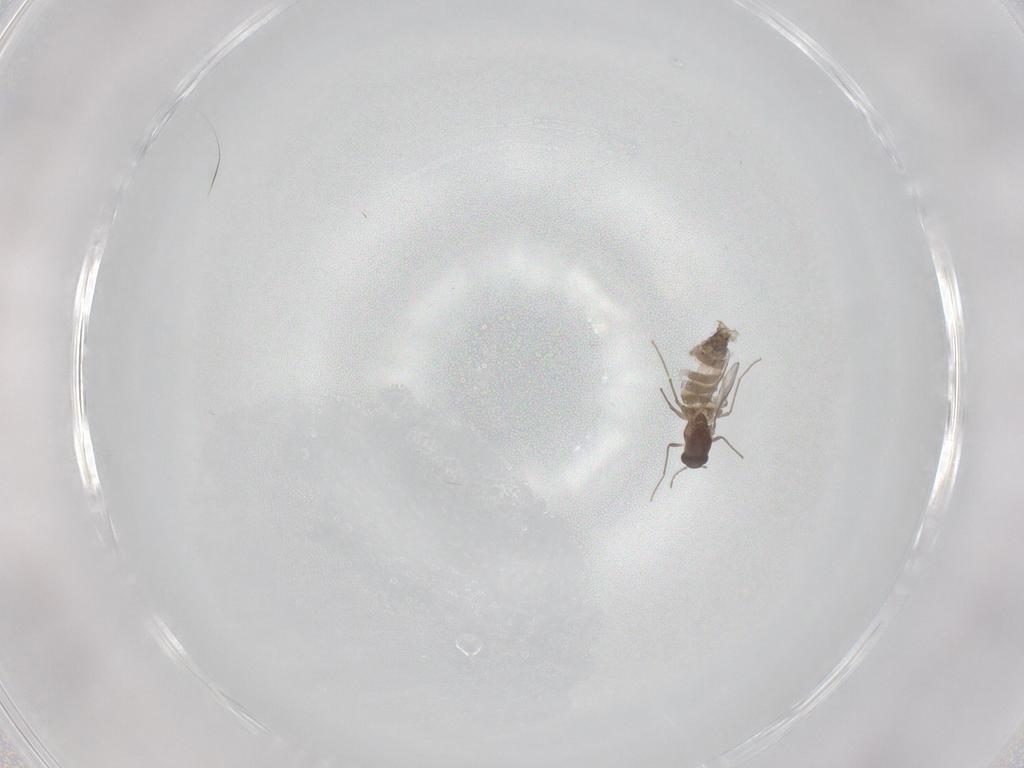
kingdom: Animalia
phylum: Arthropoda
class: Insecta
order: Diptera
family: Chironomidae
